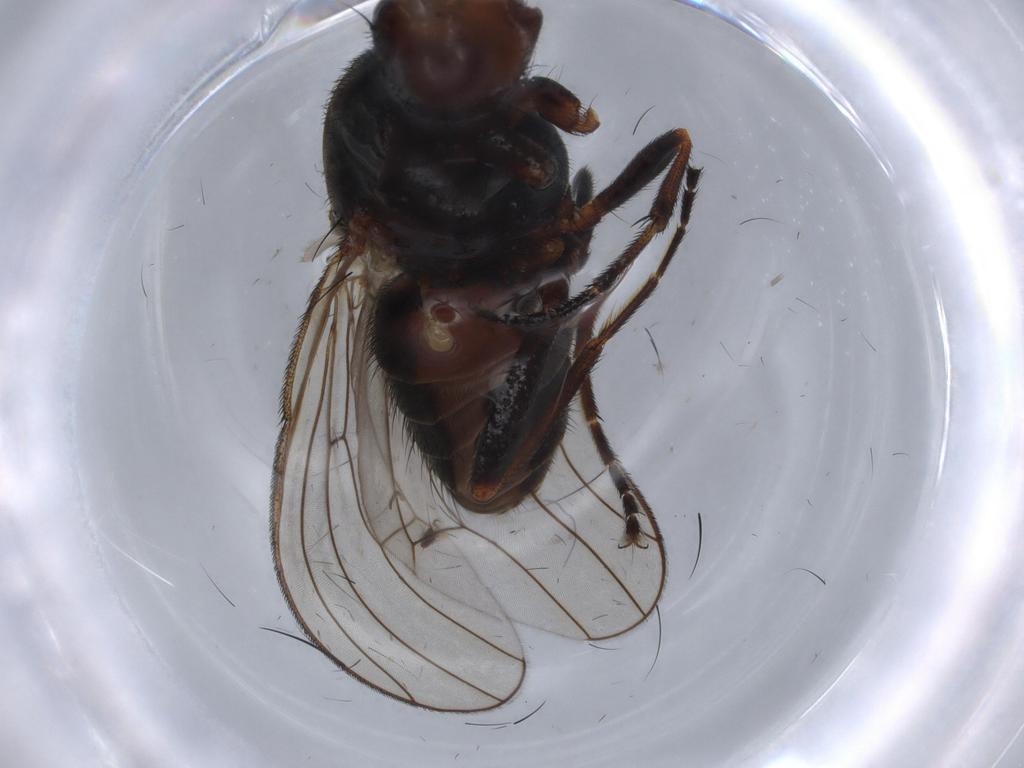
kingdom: Animalia
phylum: Arthropoda
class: Insecta
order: Diptera
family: Heleomyzidae
